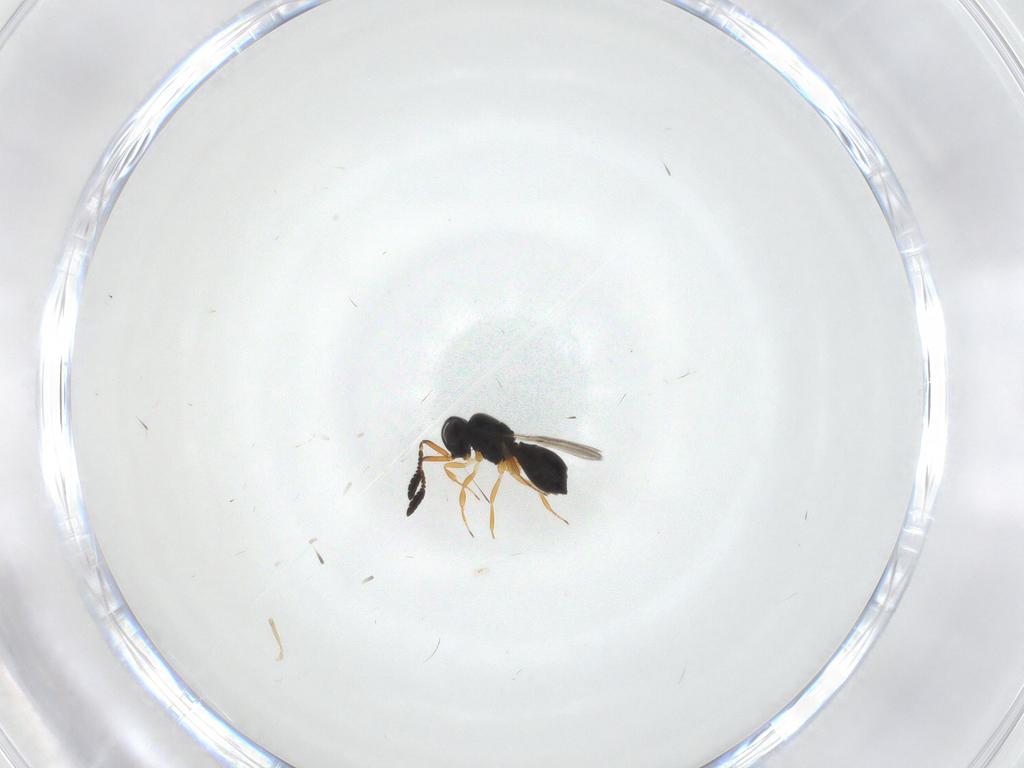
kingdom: Animalia
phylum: Arthropoda
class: Insecta
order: Hymenoptera
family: Scelionidae
